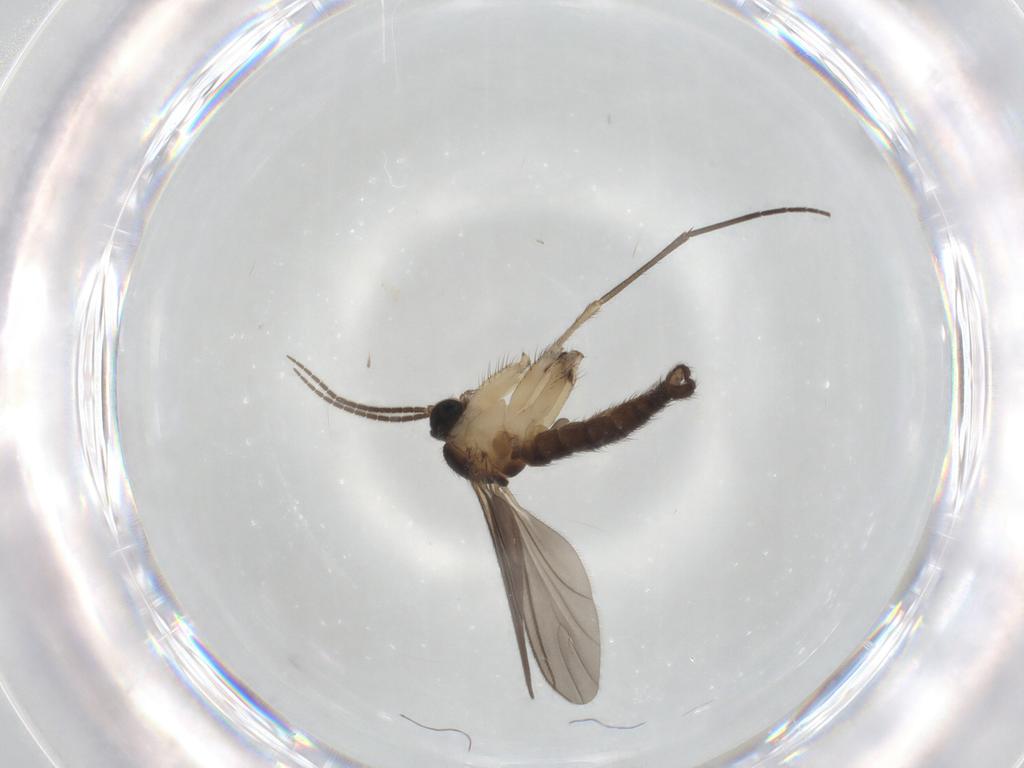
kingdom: Animalia
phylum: Arthropoda
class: Insecta
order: Diptera
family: Sciaridae
